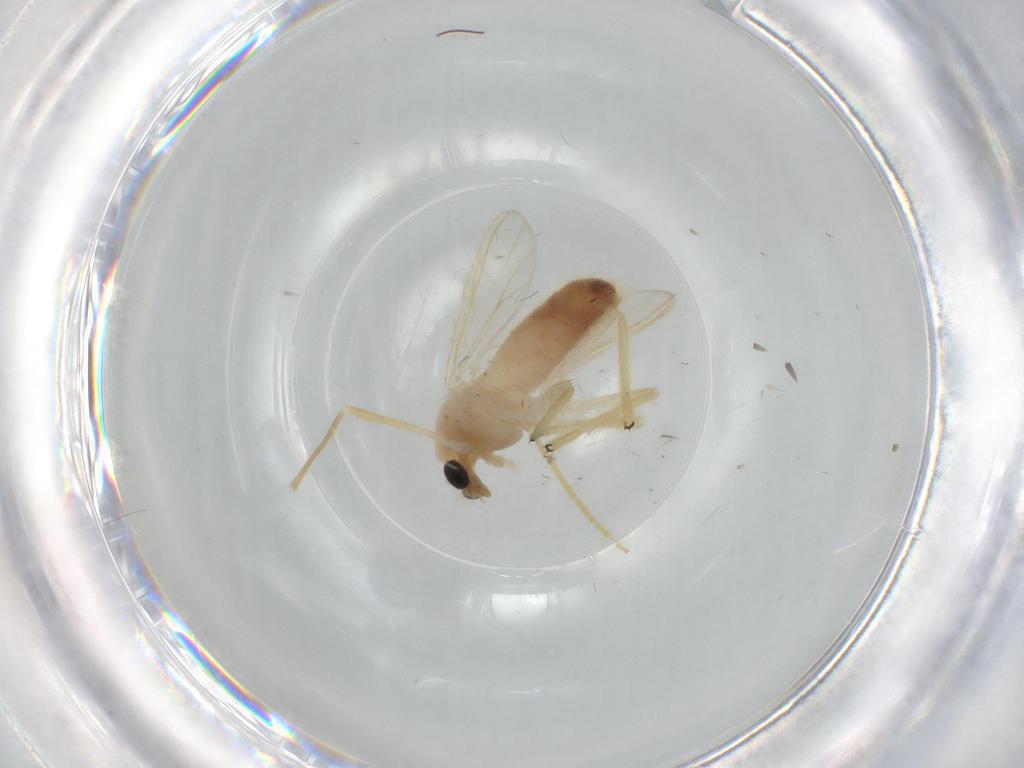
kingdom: Animalia
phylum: Arthropoda
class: Insecta
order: Diptera
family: Chironomidae
